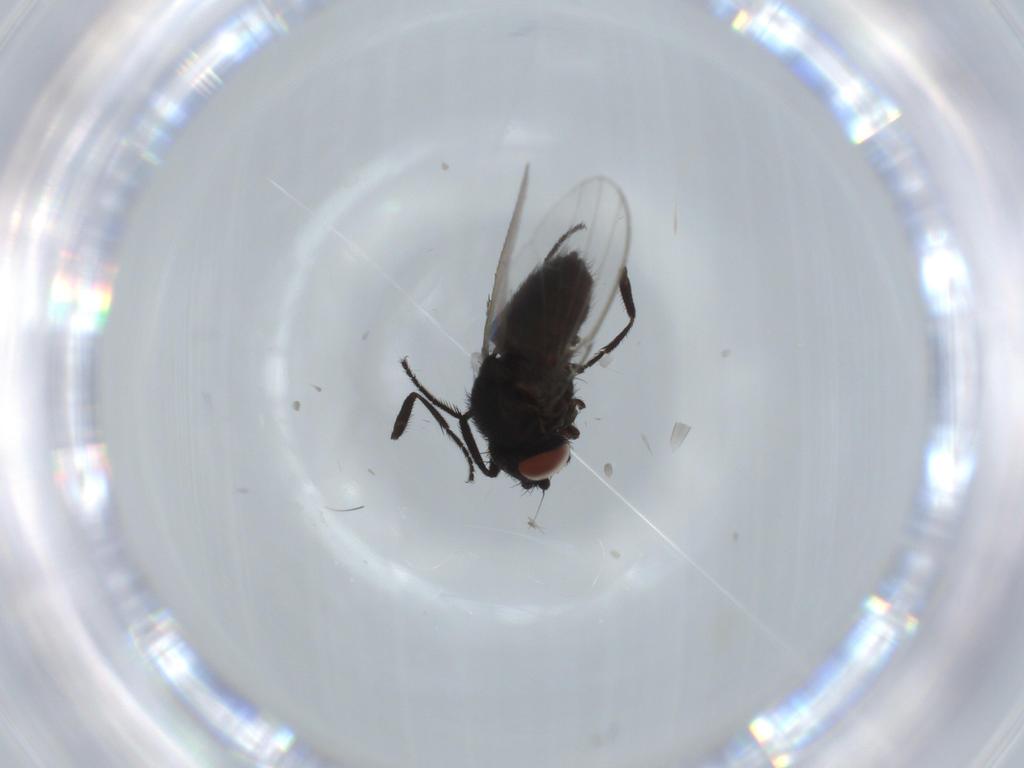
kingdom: Animalia
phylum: Arthropoda
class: Insecta
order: Diptera
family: Milichiidae
